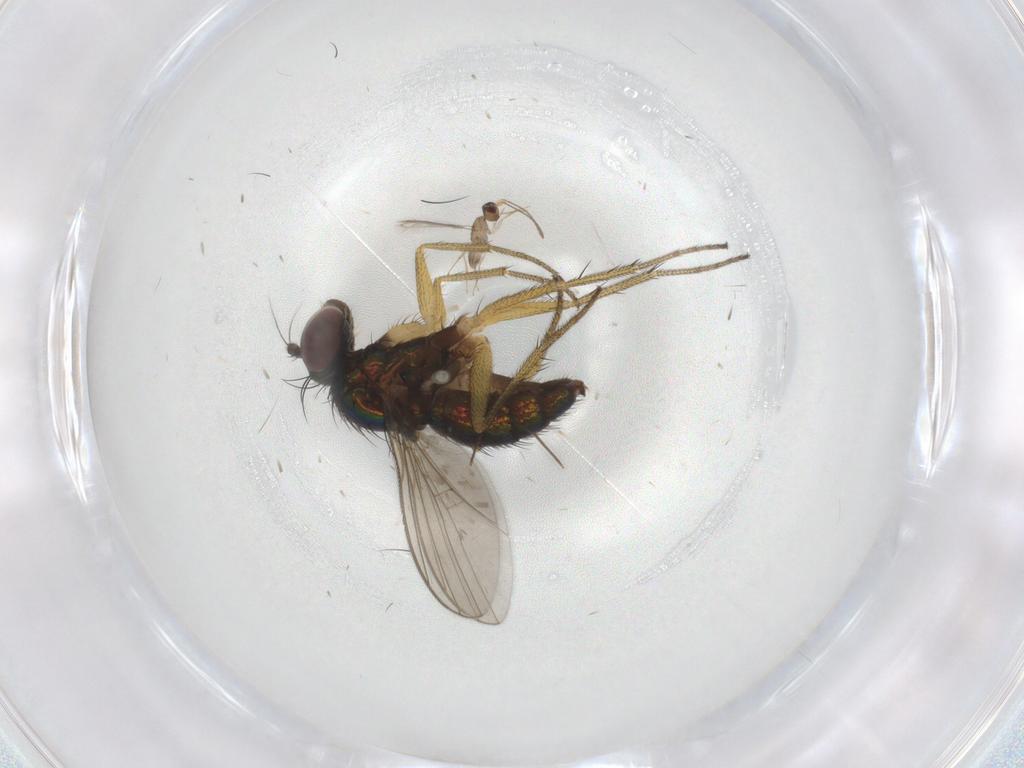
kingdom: Animalia
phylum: Arthropoda
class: Insecta
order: Hymenoptera
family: Mymaridae
